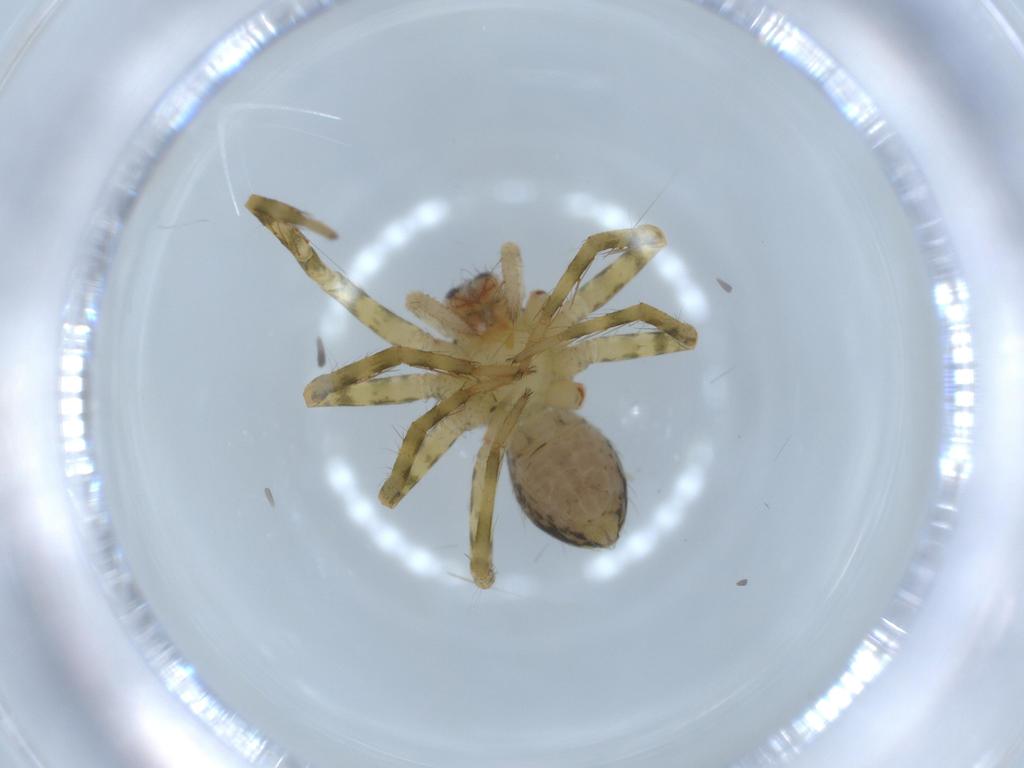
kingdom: Animalia
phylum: Arthropoda
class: Arachnida
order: Araneae
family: Ctenidae
